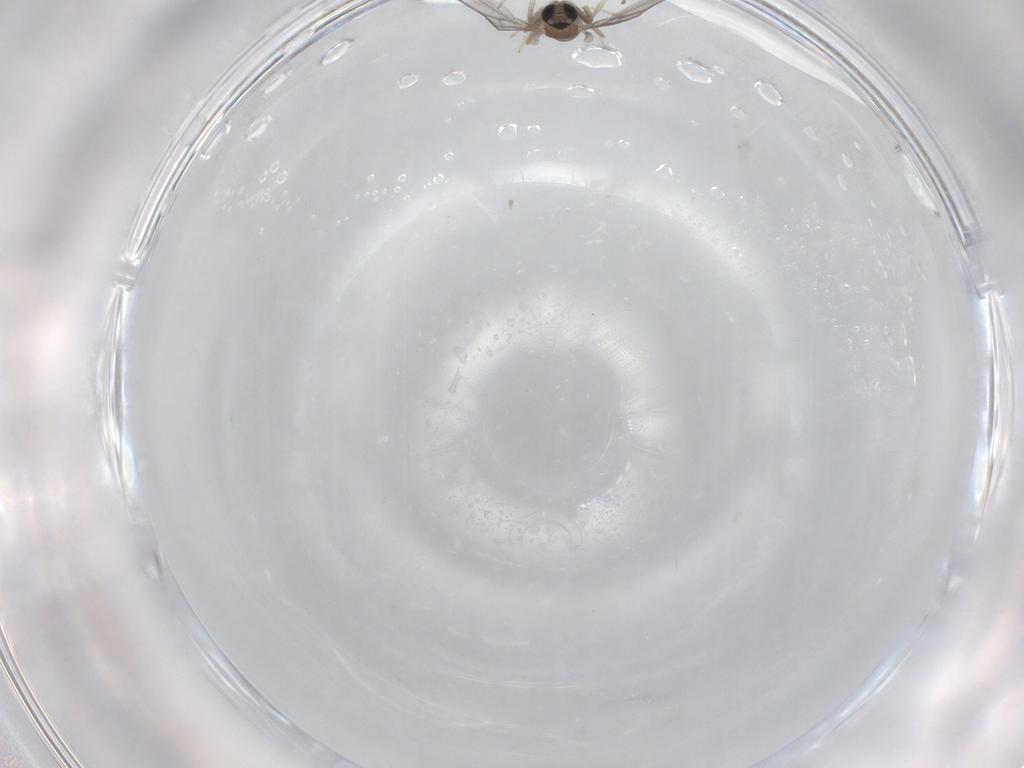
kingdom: Animalia
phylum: Arthropoda
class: Insecta
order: Diptera
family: Cecidomyiidae
